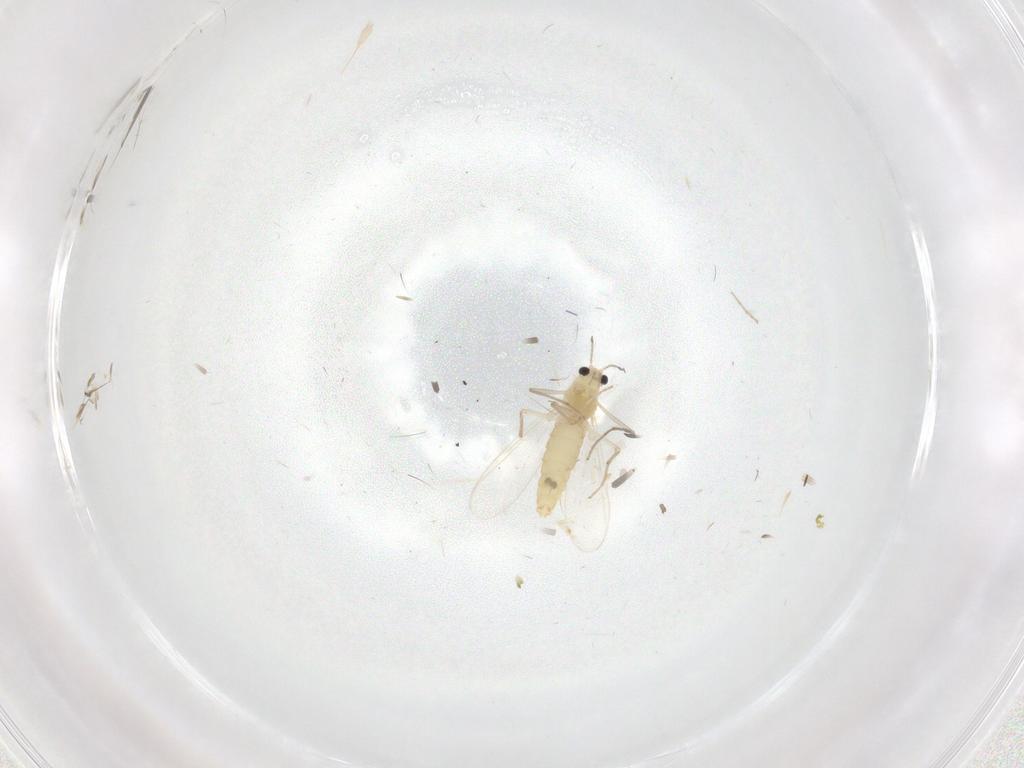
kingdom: Animalia
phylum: Arthropoda
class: Insecta
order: Diptera
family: Chironomidae
